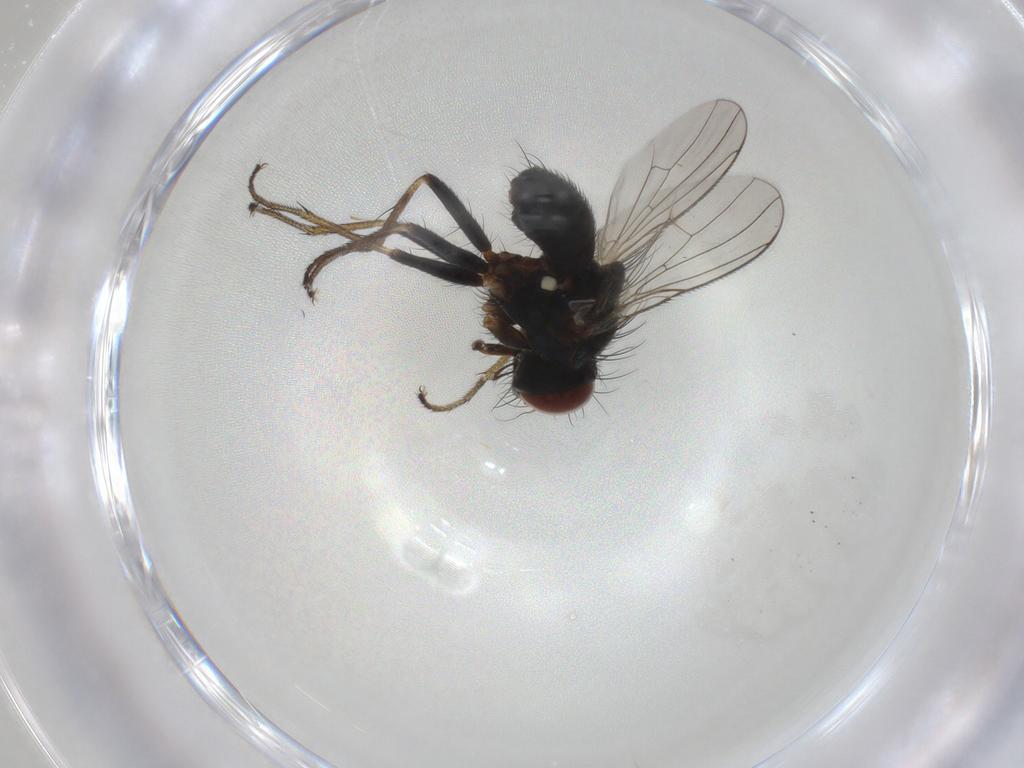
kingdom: Animalia
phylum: Arthropoda
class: Insecta
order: Diptera
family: Muscidae
